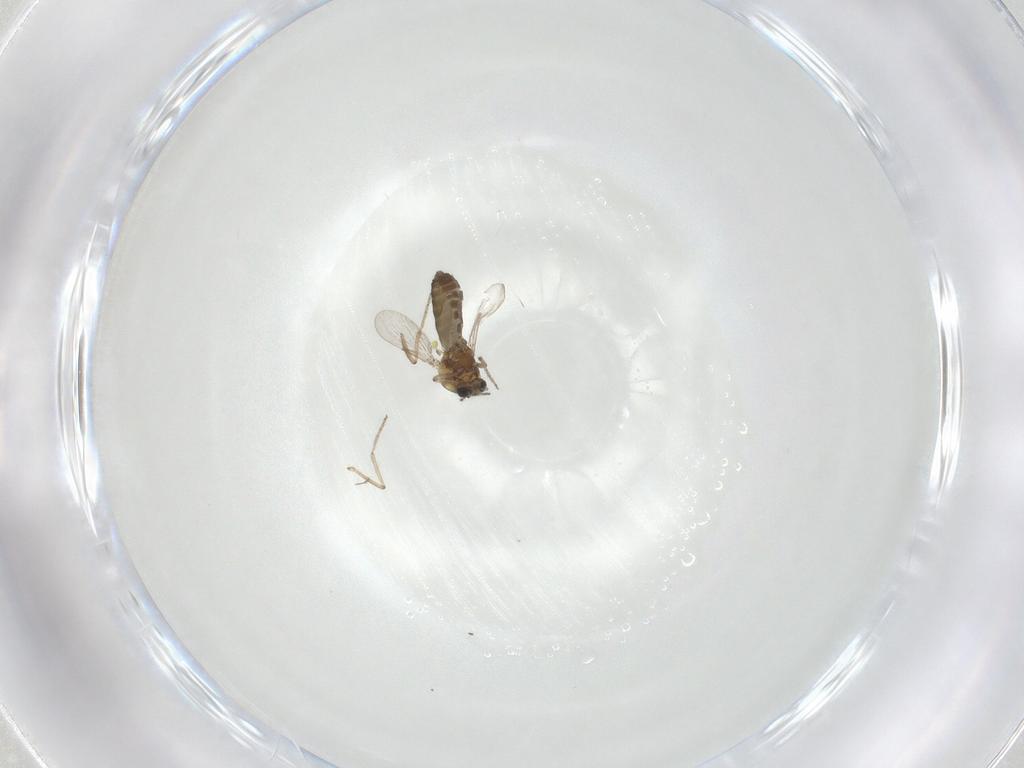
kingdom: Animalia
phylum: Arthropoda
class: Insecta
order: Diptera
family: Ceratopogonidae
